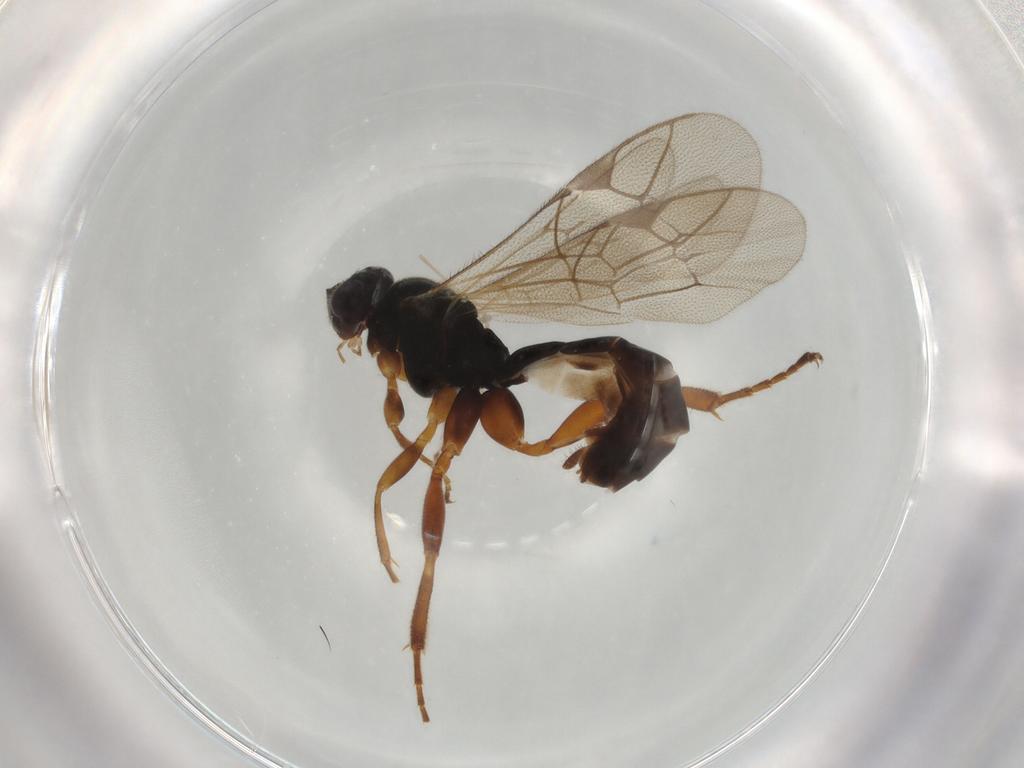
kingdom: Animalia
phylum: Arthropoda
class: Insecta
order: Hymenoptera
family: Ichneumonidae
